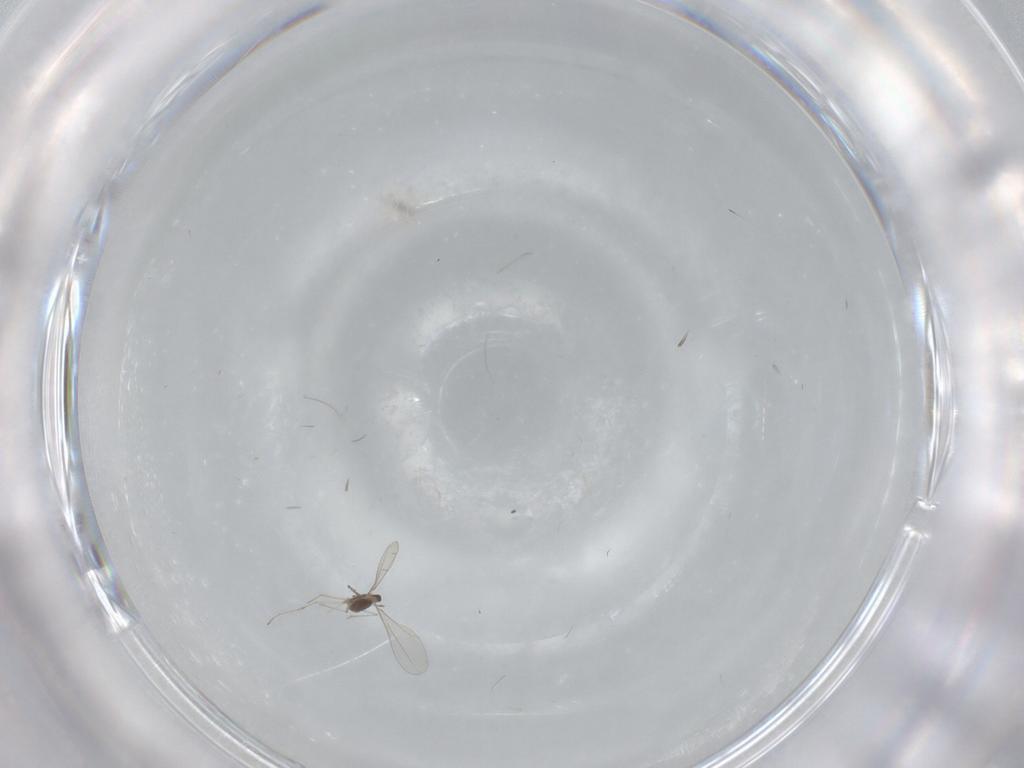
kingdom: Animalia
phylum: Arthropoda
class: Insecta
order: Diptera
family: Cecidomyiidae
